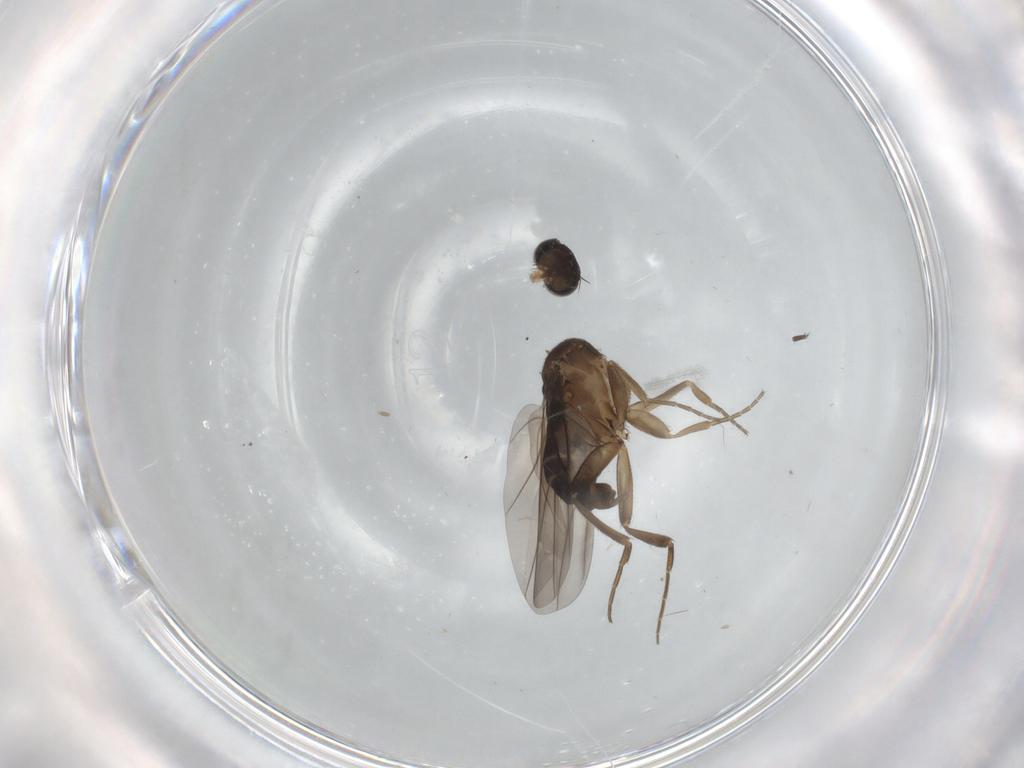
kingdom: Animalia
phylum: Arthropoda
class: Insecta
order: Diptera
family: Phoridae
